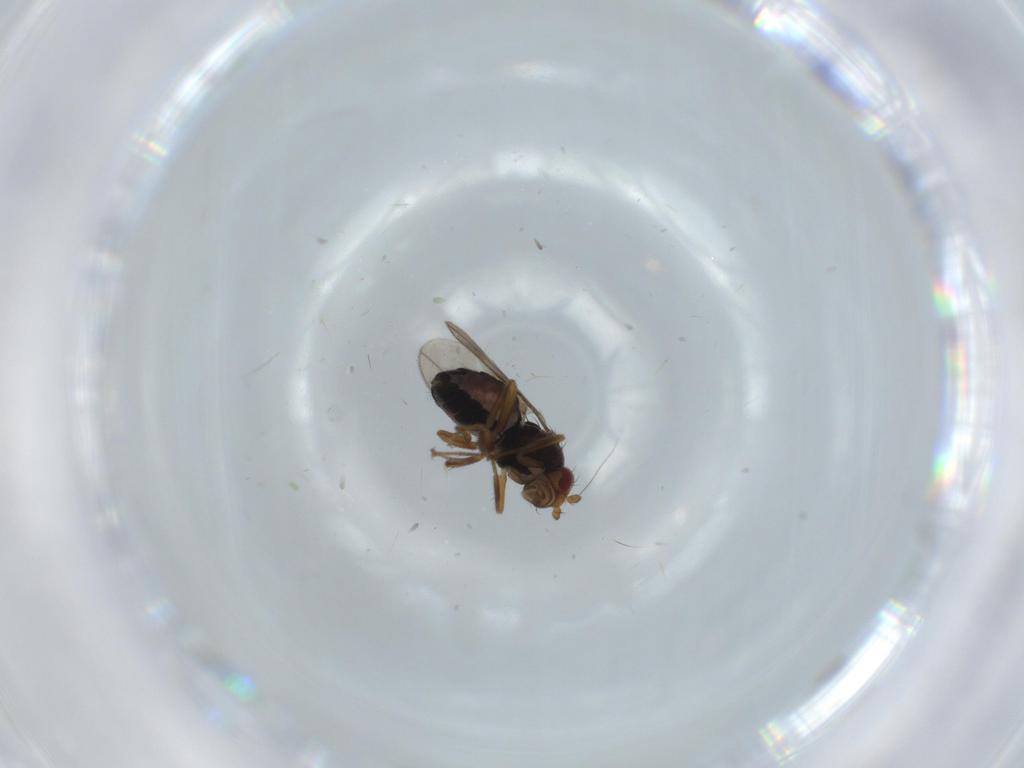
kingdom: Animalia
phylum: Arthropoda
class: Insecta
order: Diptera
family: Sphaeroceridae
